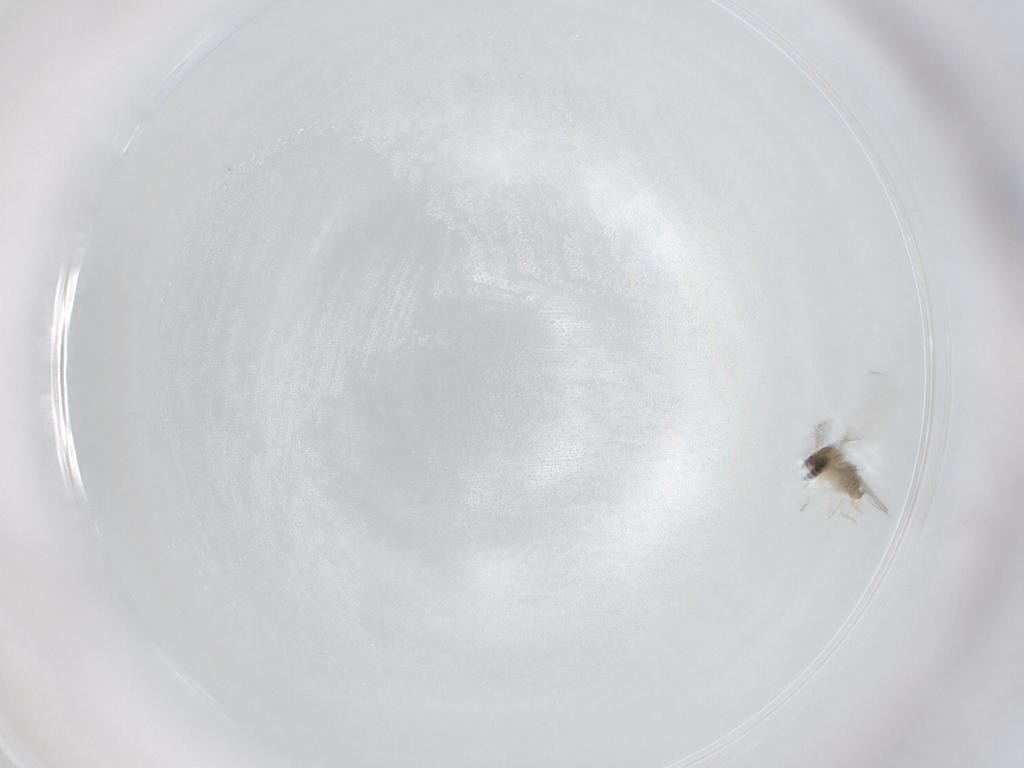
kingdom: Animalia
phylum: Arthropoda
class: Insecta
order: Diptera
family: Cecidomyiidae
